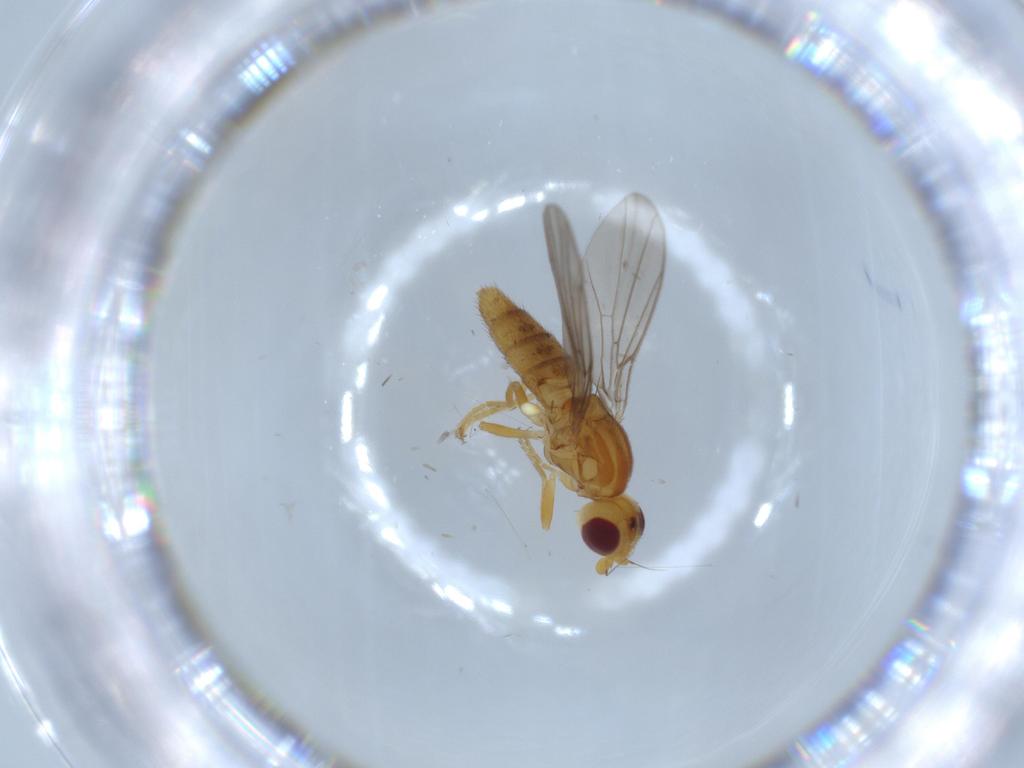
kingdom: Animalia
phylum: Arthropoda
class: Insecta
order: Diptera
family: Chloropidae
